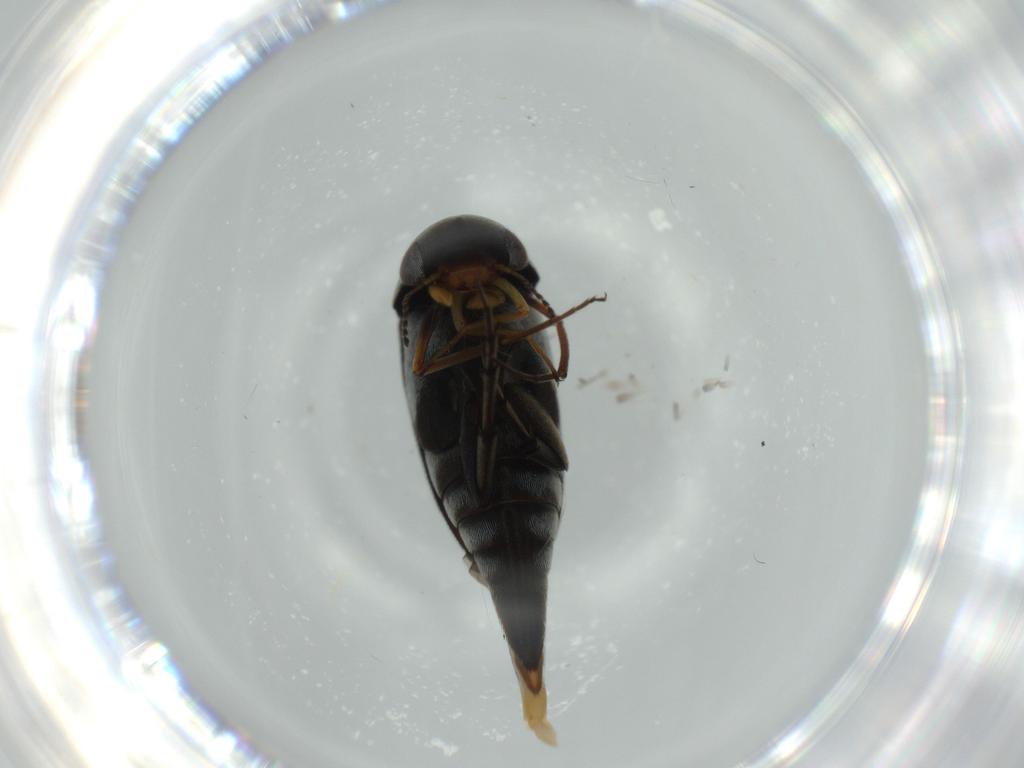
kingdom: Animalia
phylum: Arthropoda
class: Insecta
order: Coleoptera
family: Mordellidae
